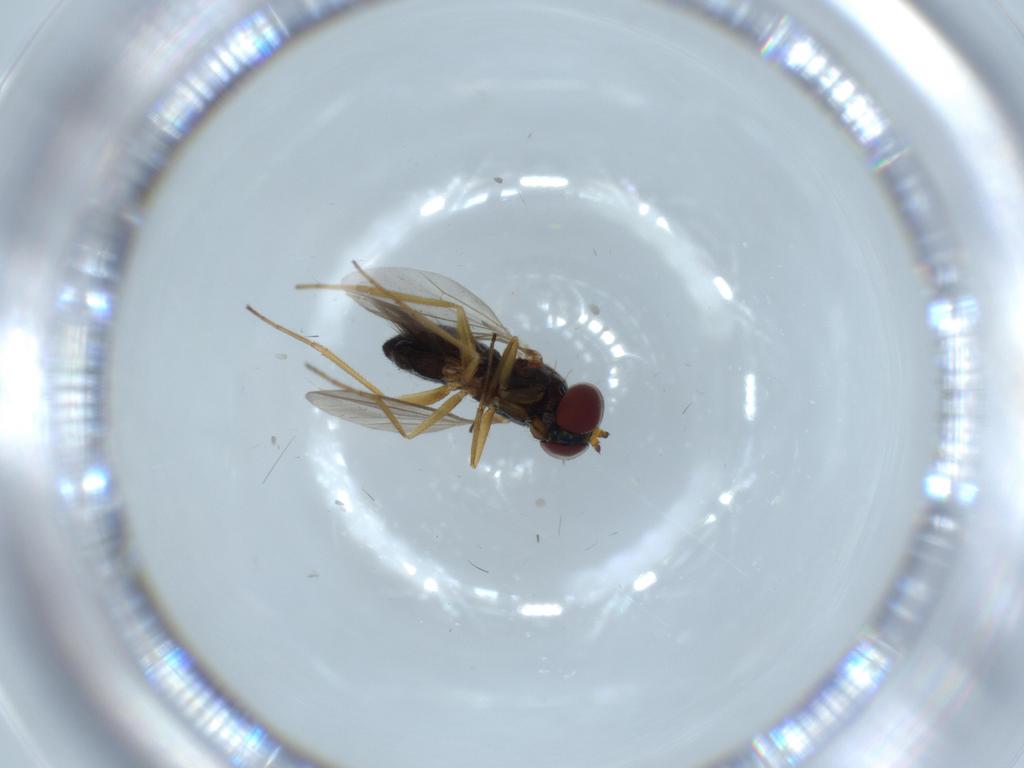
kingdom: Animalia
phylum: Arthropoda
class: Insecta
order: Diptera
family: Dolichopodidae
